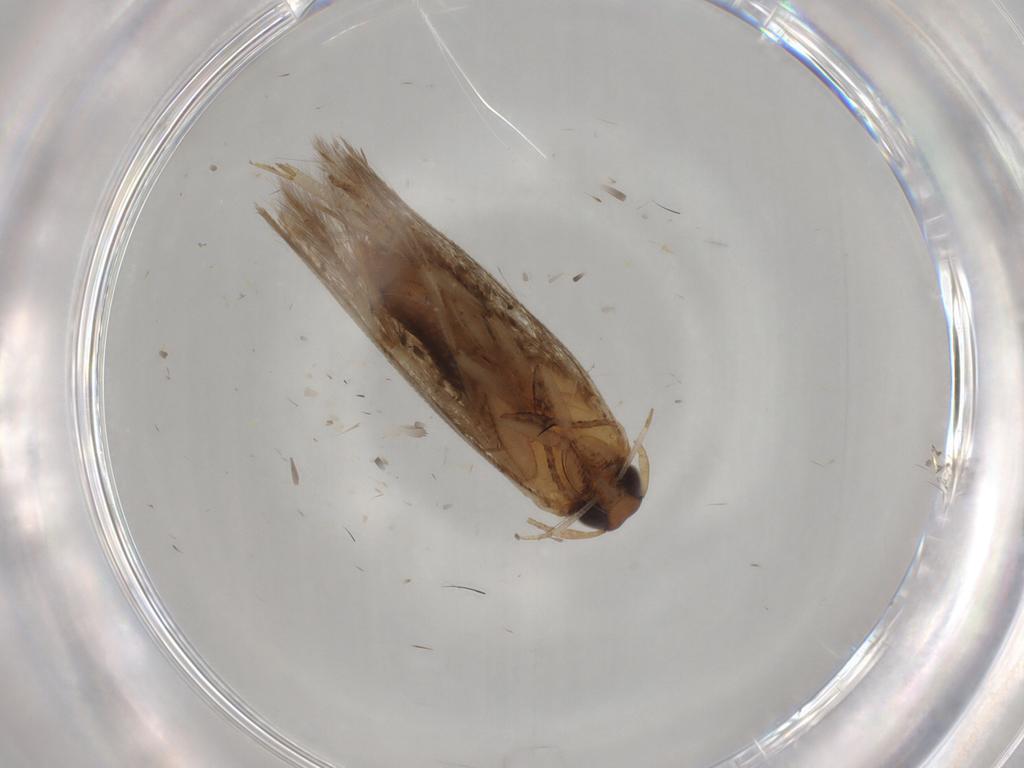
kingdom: Animalia
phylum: Arthropoda
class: Insecta
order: Lepidoptera
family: Cosmopterigidae
